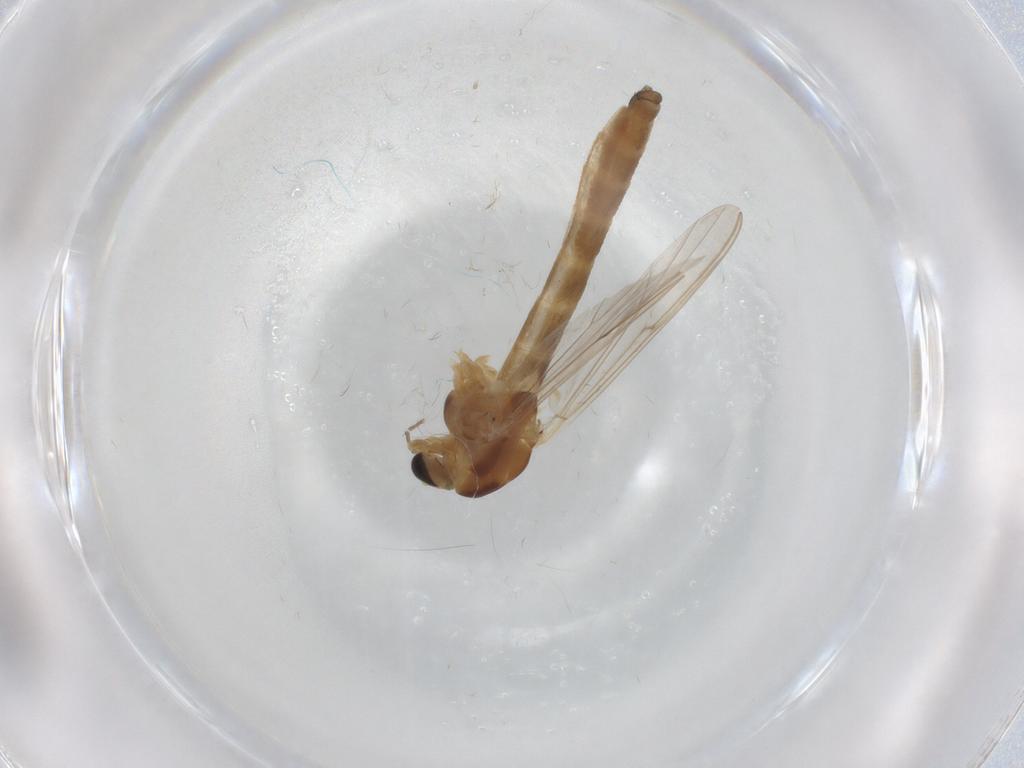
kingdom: Animalia
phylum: Arthropoda
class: Insecta
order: Diptera
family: Chironomidae
